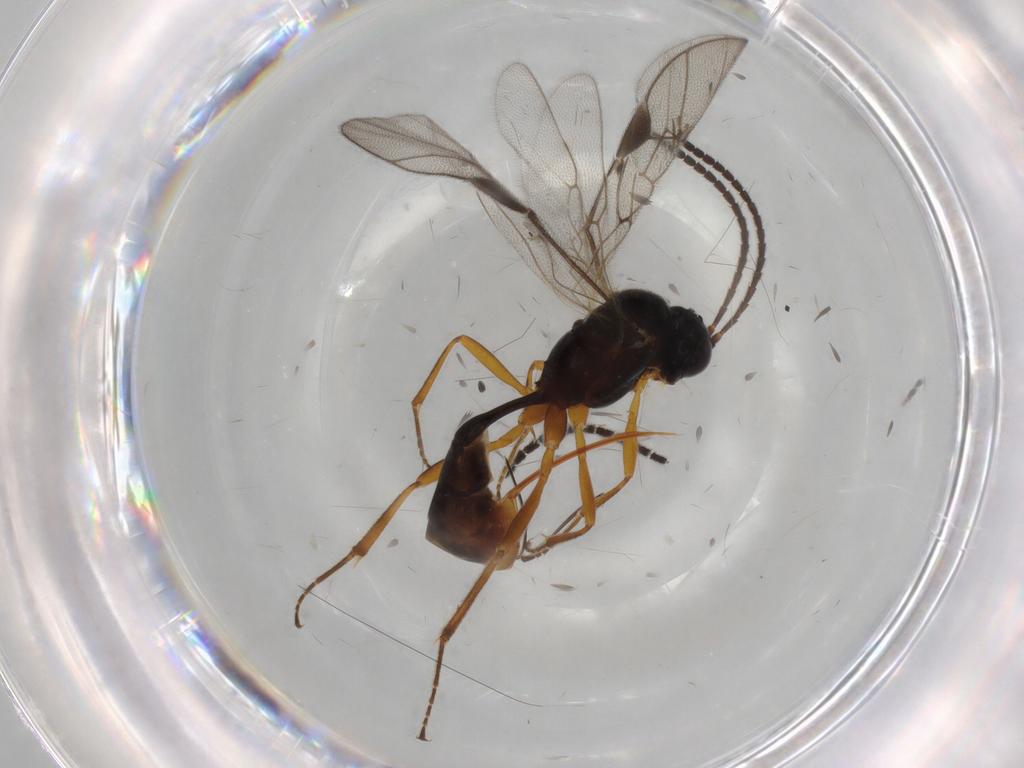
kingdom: Animalia
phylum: Arthropoda
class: Insecta
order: Hymenoptera
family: Ichneumonidae
